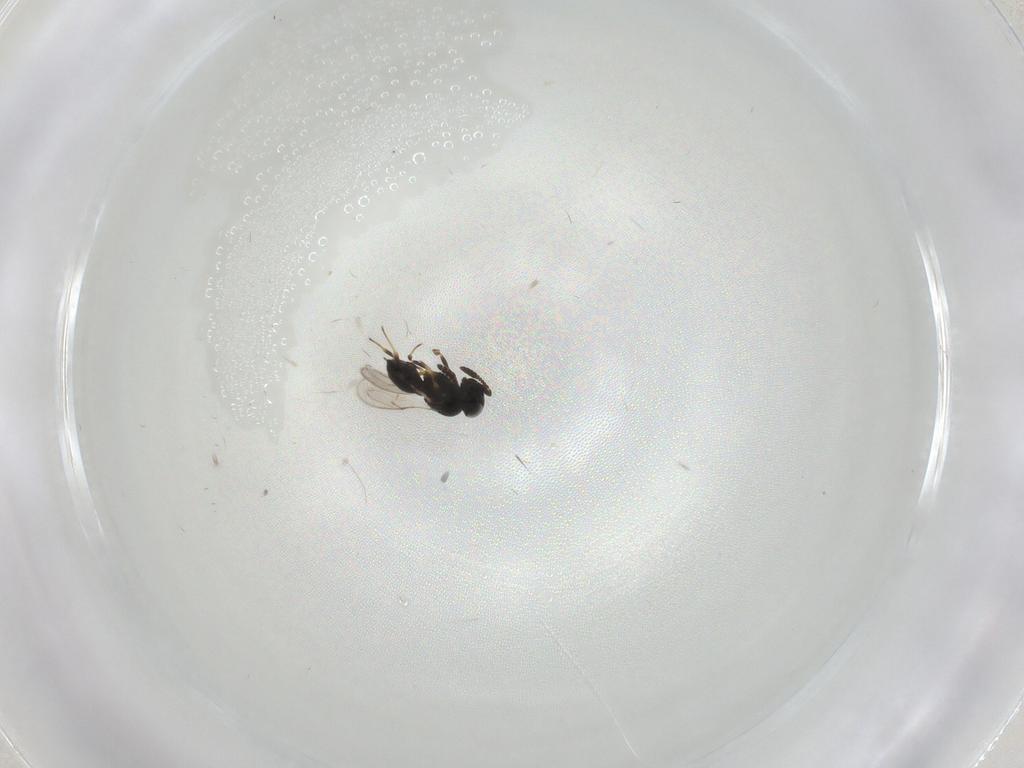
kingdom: Animalia
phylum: Arthropoda
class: Insecta
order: Hymenoptera
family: Scelionidae
